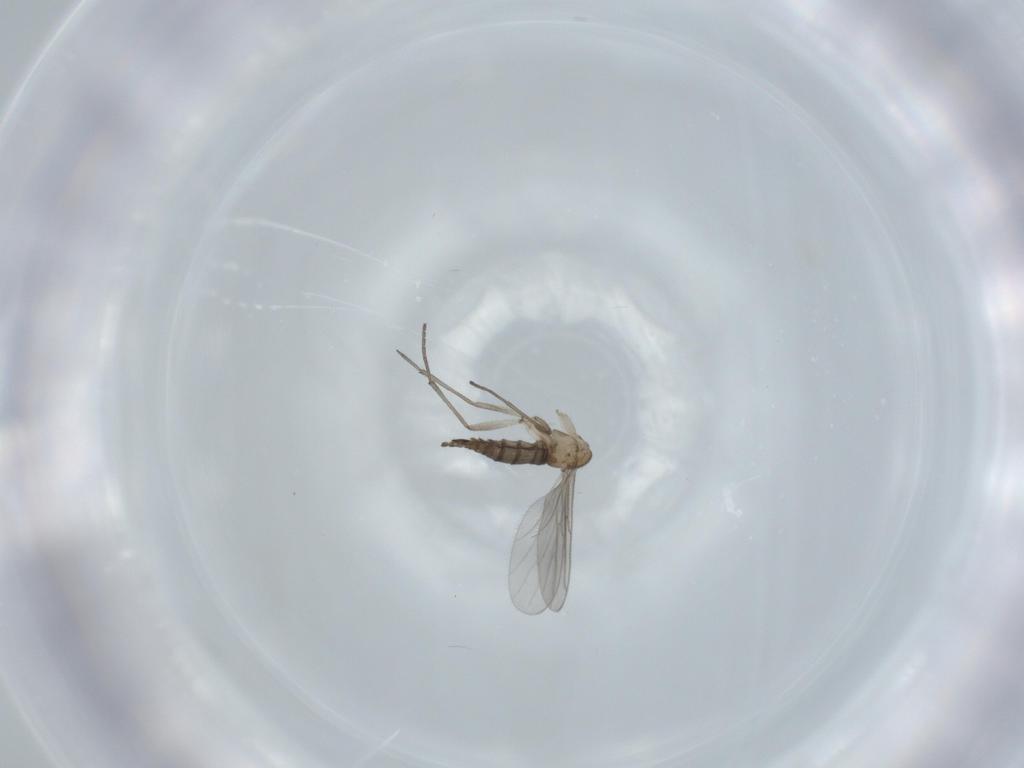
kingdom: Animalia
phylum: Arthropoda
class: Insecta
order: Diptera
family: Sciaridae
